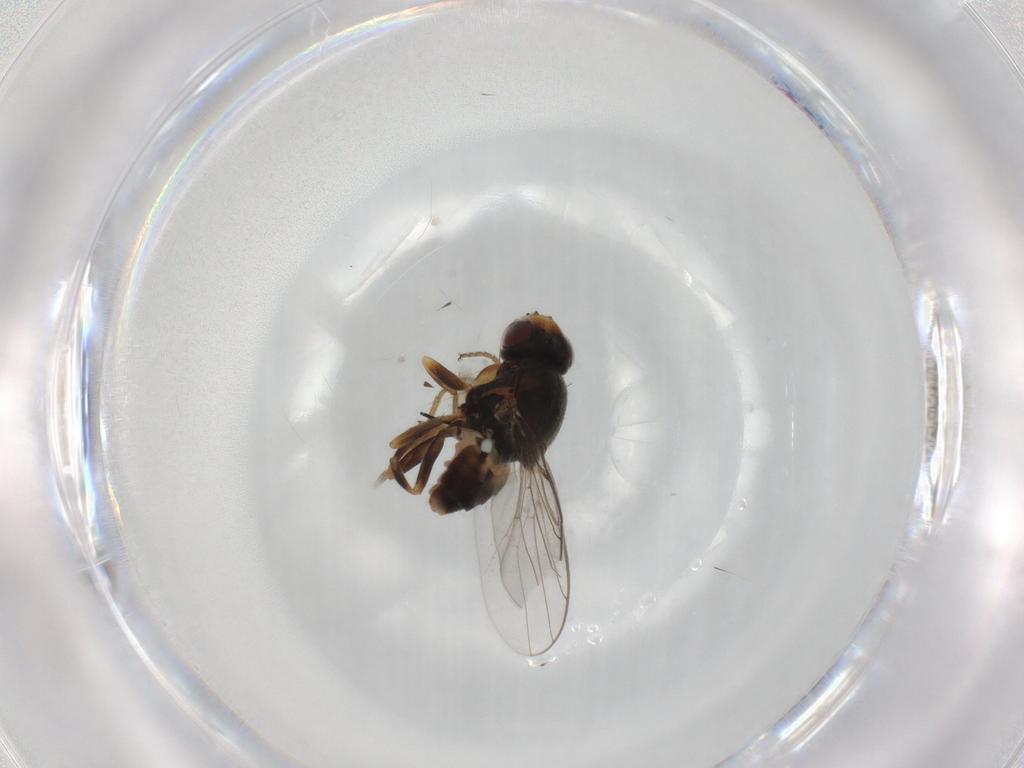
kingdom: Animalia
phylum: Arthropoda
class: Insecta
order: Diptera
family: Chloropidae
